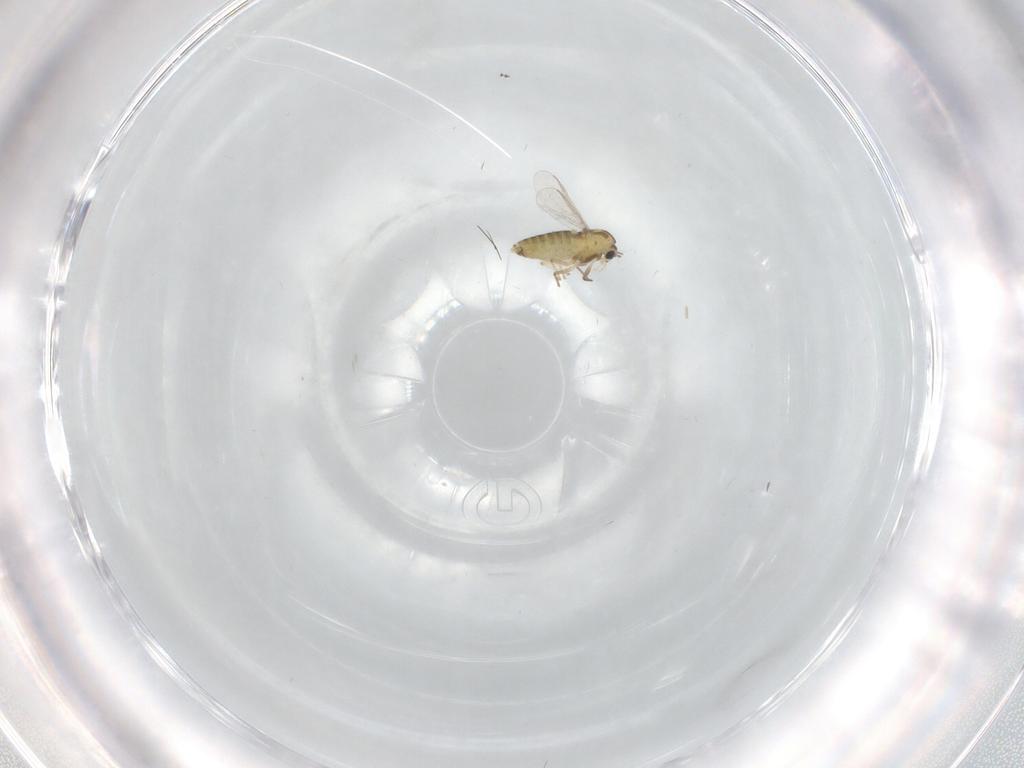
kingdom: Animalia
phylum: Arthropoda
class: Insecta
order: Diptera
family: Chironomidae
